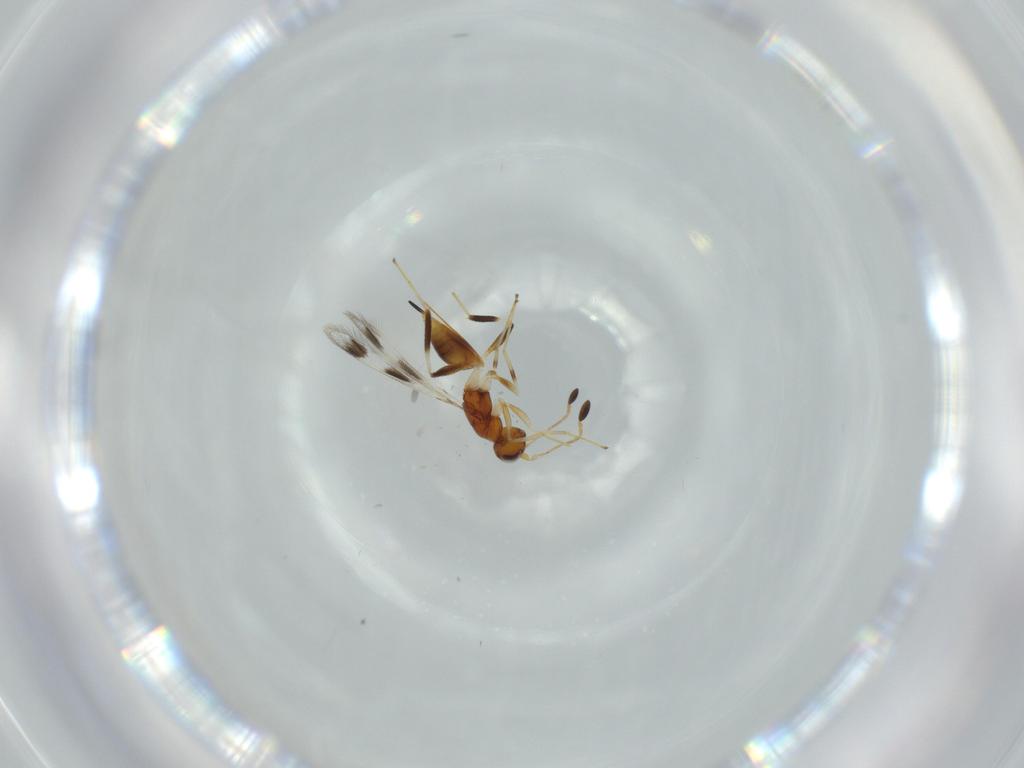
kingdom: Animalia
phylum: Arthropoda
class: Insecta
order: Hymenoptera
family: Mymaridae
